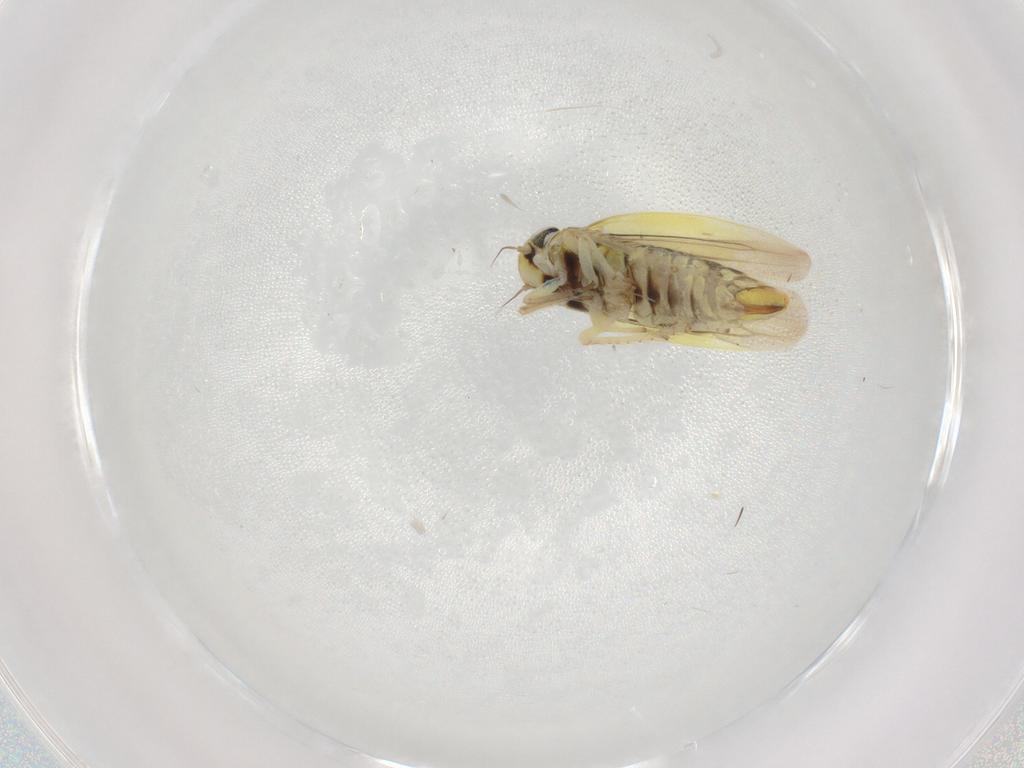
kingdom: Animalia
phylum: Arthropoda
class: Insecta
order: Hemiptera
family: Cicadellidae
